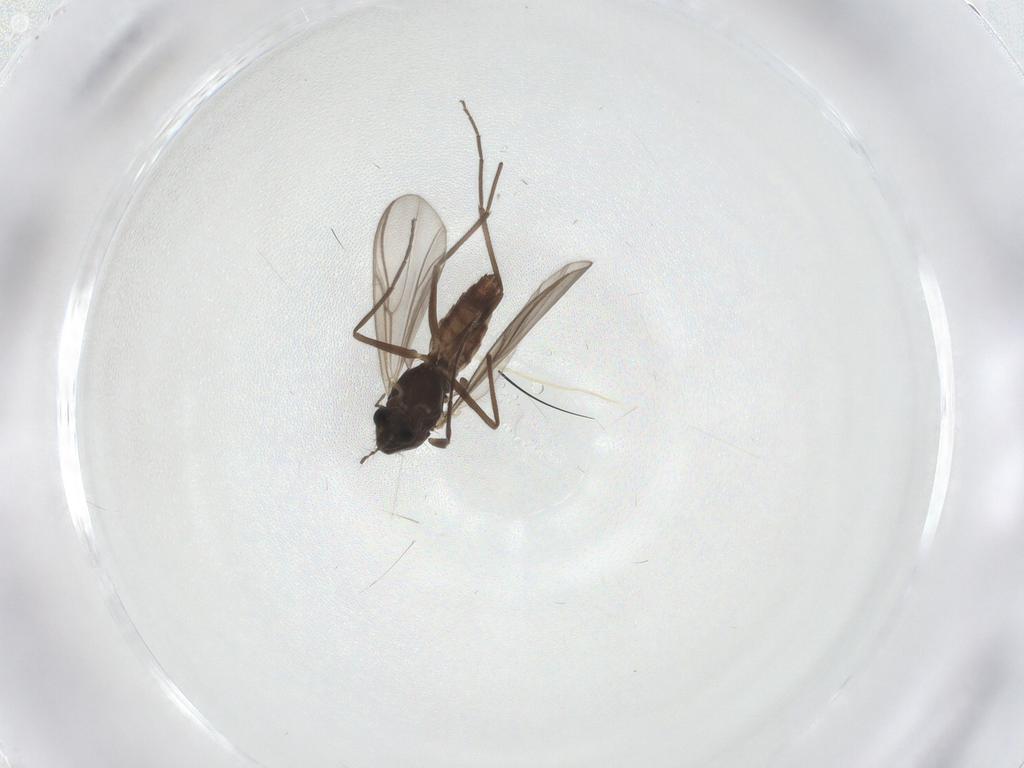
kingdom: Animalia
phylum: Arthropoda
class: Insecta
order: Diptera
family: Chironomidae
